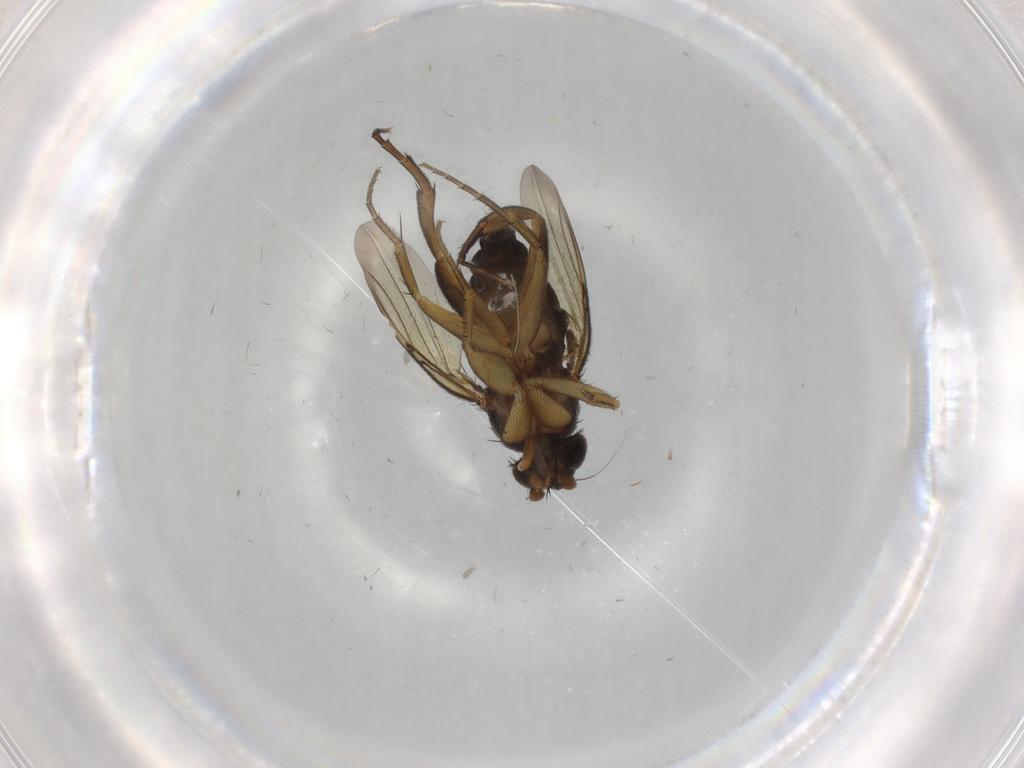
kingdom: Animalia
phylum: Arthropoda
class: Insecta
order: Diptera
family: Phoridae
